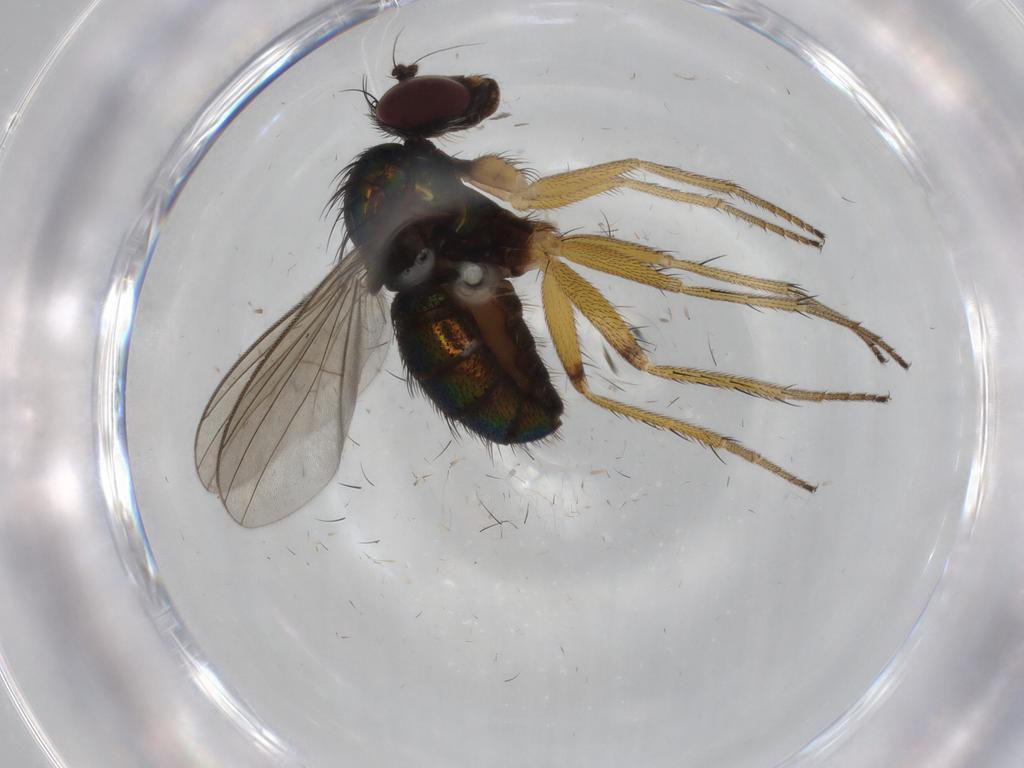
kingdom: Animalia
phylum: Arthropoda
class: Insecta
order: Diptera
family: Dolichopodidae
